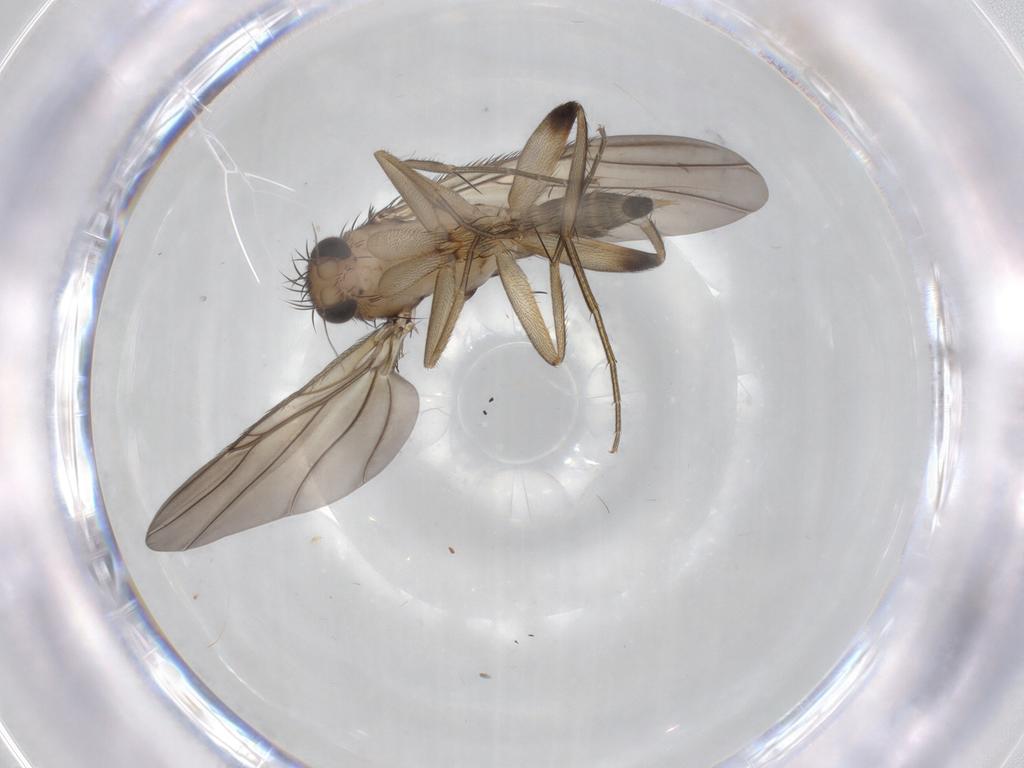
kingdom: Animalia
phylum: Arthropoda
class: Insecta
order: Diptera
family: Phoridae
